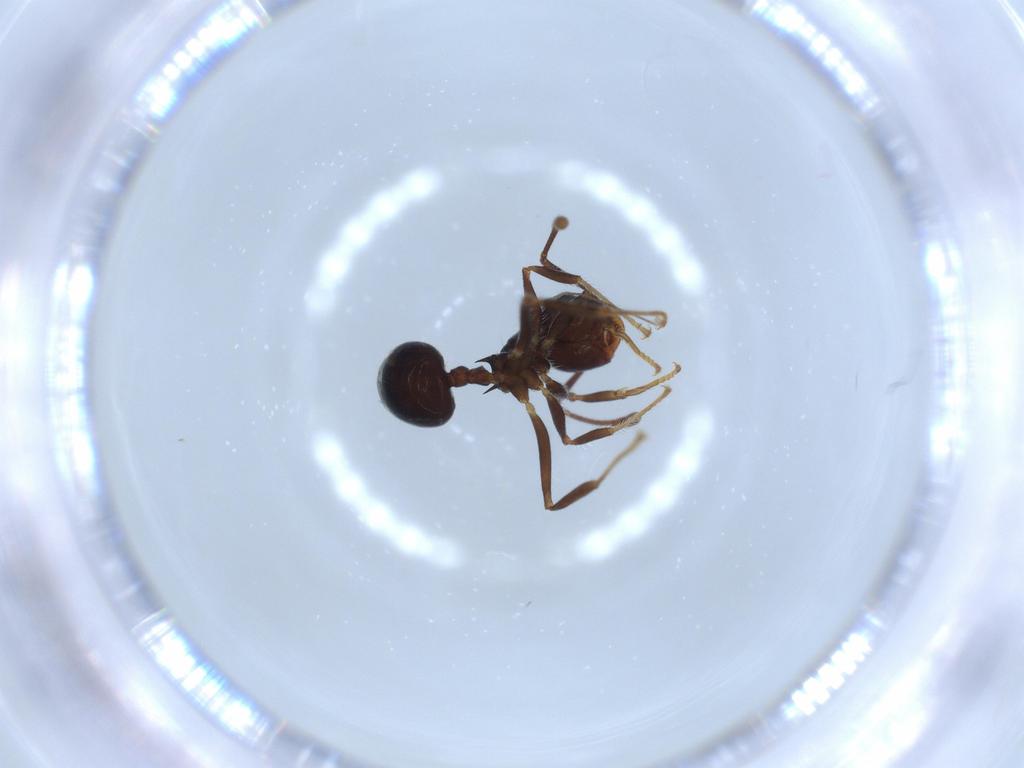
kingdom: Animalia
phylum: Arthropoda
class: Insecta
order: Hymenoptera
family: Formicidae
